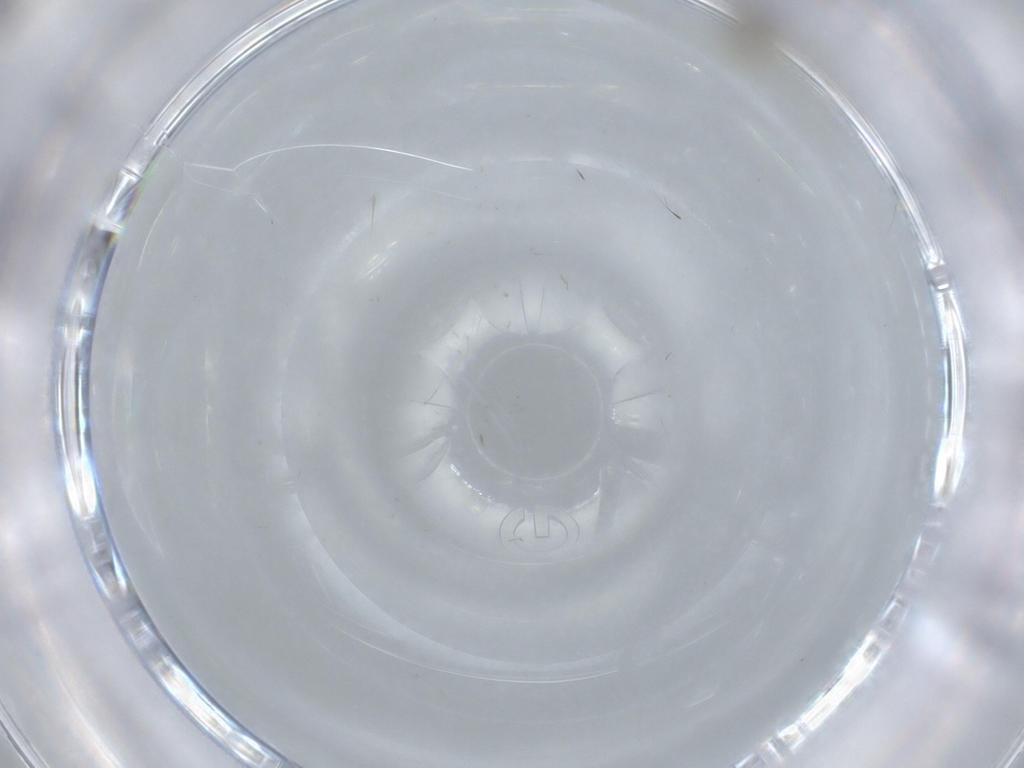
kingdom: Animalia
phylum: Arthropoda
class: Insecta
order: Diptera
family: Cecidomyiidae
